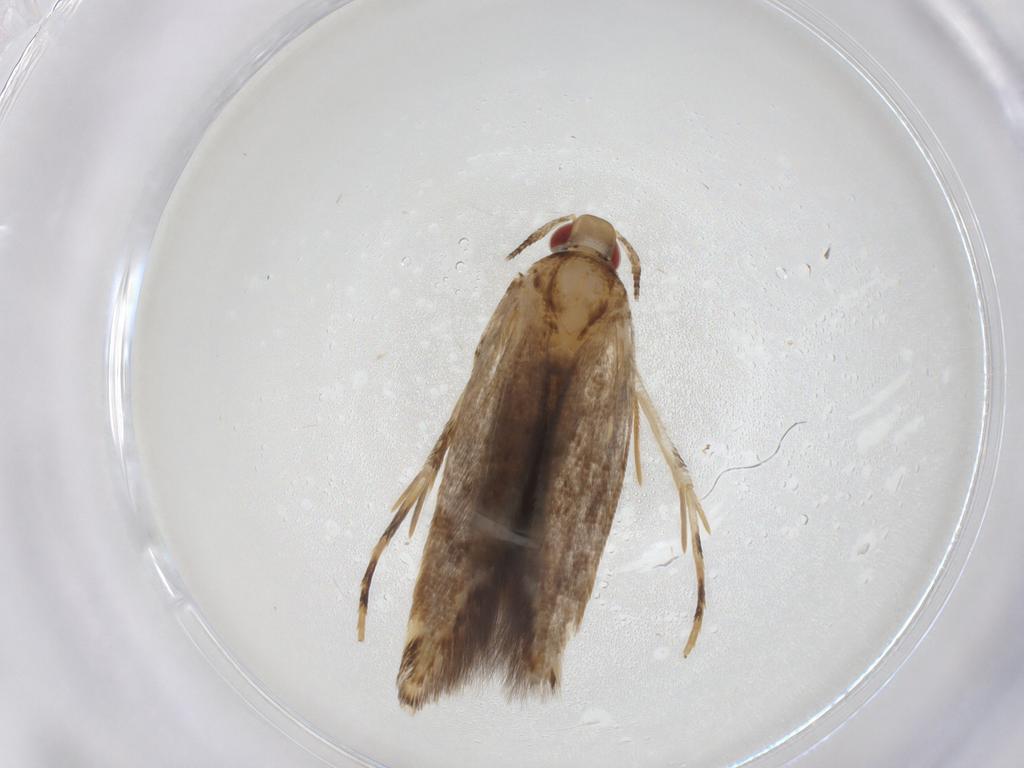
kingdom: Animalia
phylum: Arthropoda
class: Insecta
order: Lepidoptera
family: Cosmopterigidae
